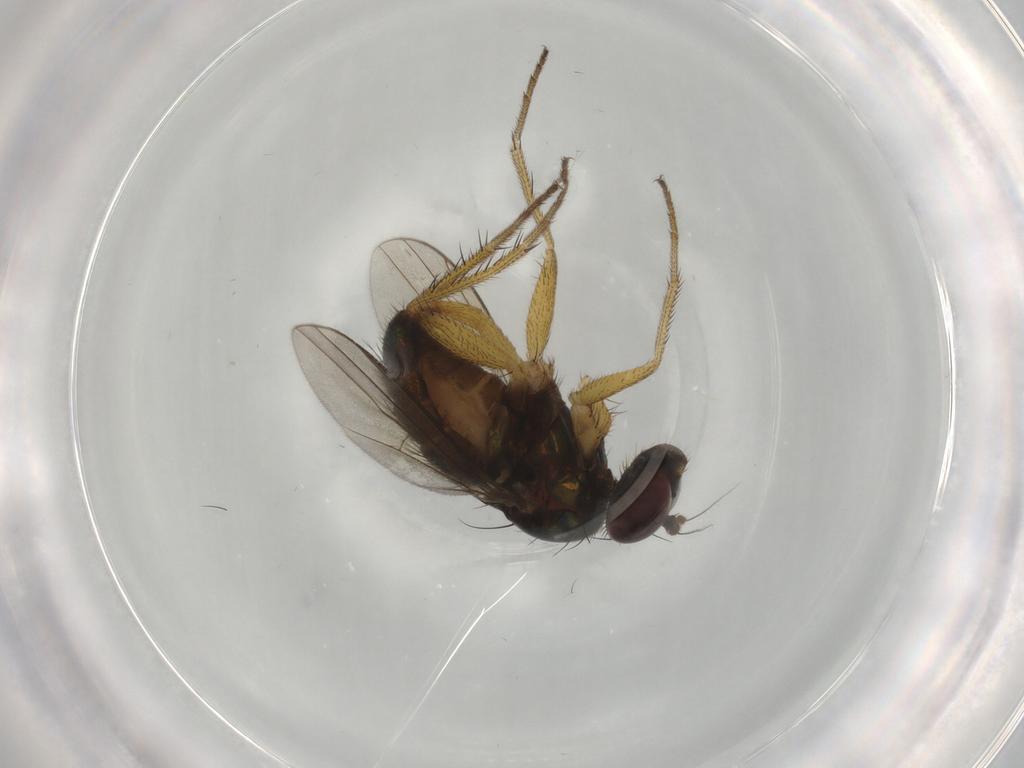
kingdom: Animalia
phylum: Arthropoda
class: Insecta
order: Diptera
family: Dolichopodidae
